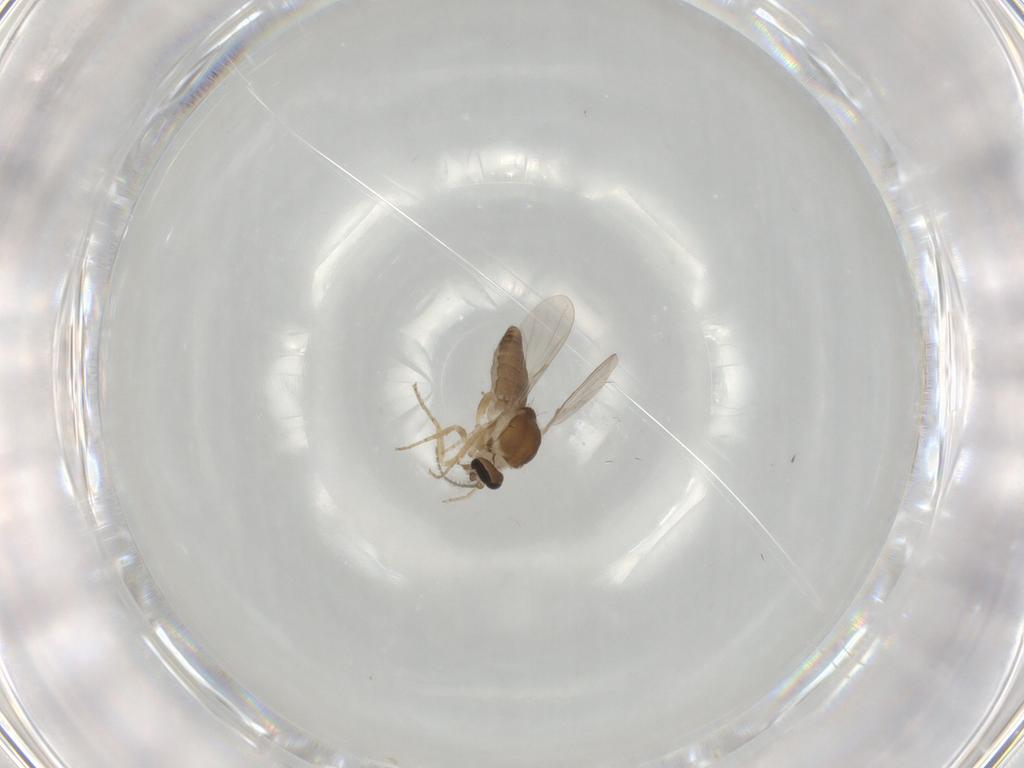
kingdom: Animalia
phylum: Arthropoda
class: Insecta
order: Diptera
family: Ceratopogonidae
